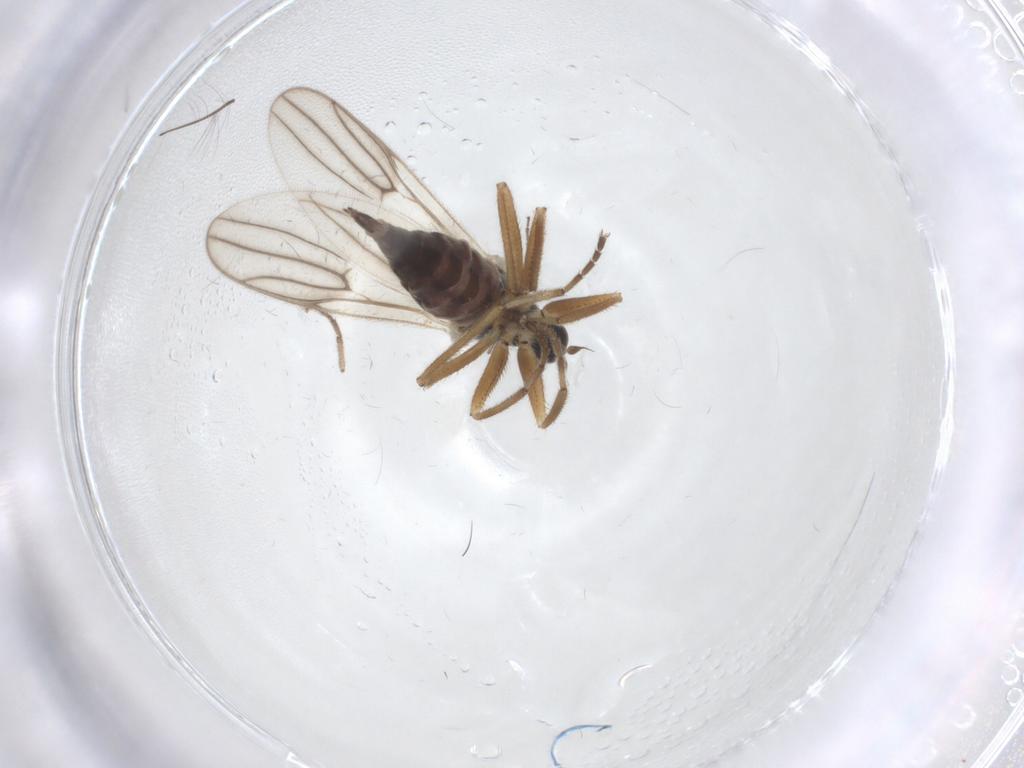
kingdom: Animalia
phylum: Arthropoda
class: Insecta
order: Diptera
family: Hybotidae
